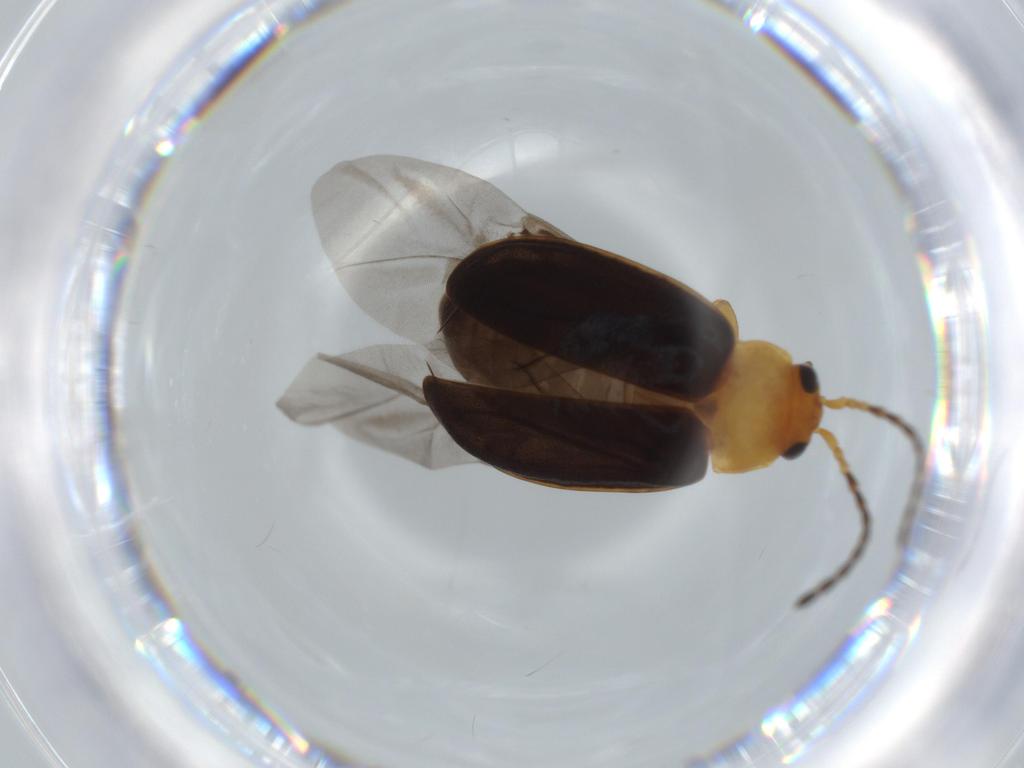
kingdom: Animalia
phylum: Arthropoda
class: Insecta
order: Coleoptera
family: Chrysomelidae
